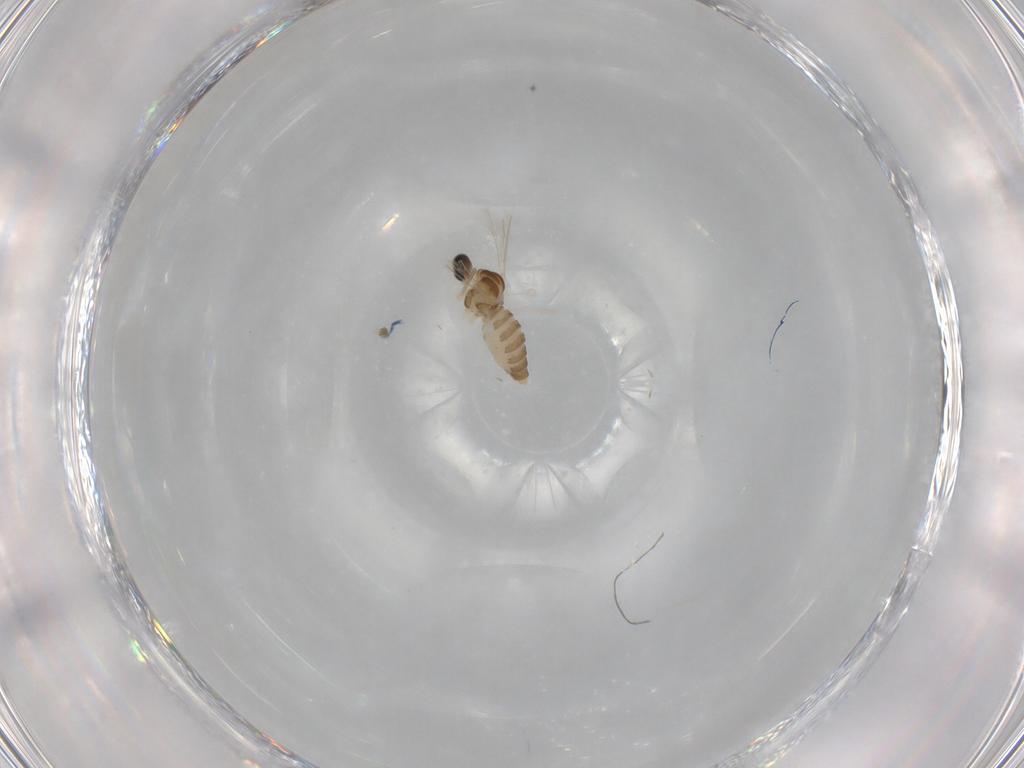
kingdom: Animalia
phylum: Arthropoda
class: Insecta
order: Diptera
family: Cecidomyiidae
